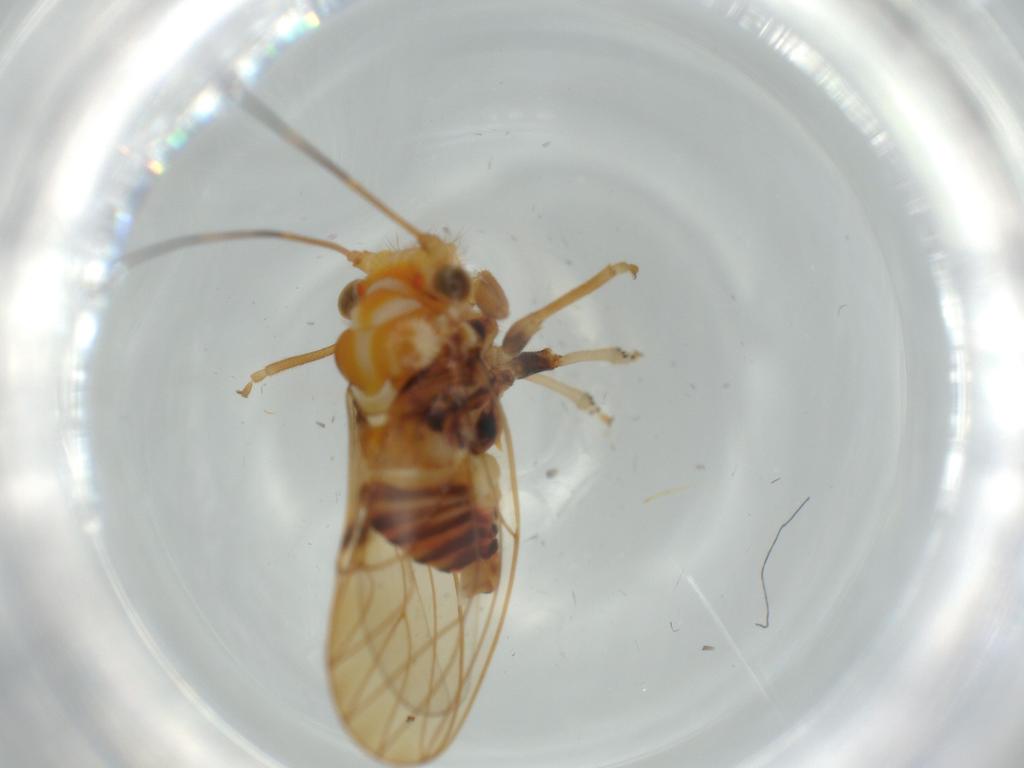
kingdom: Animalia
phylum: Arthropoda
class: Insecta
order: Hemiptera
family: Psyllidae
